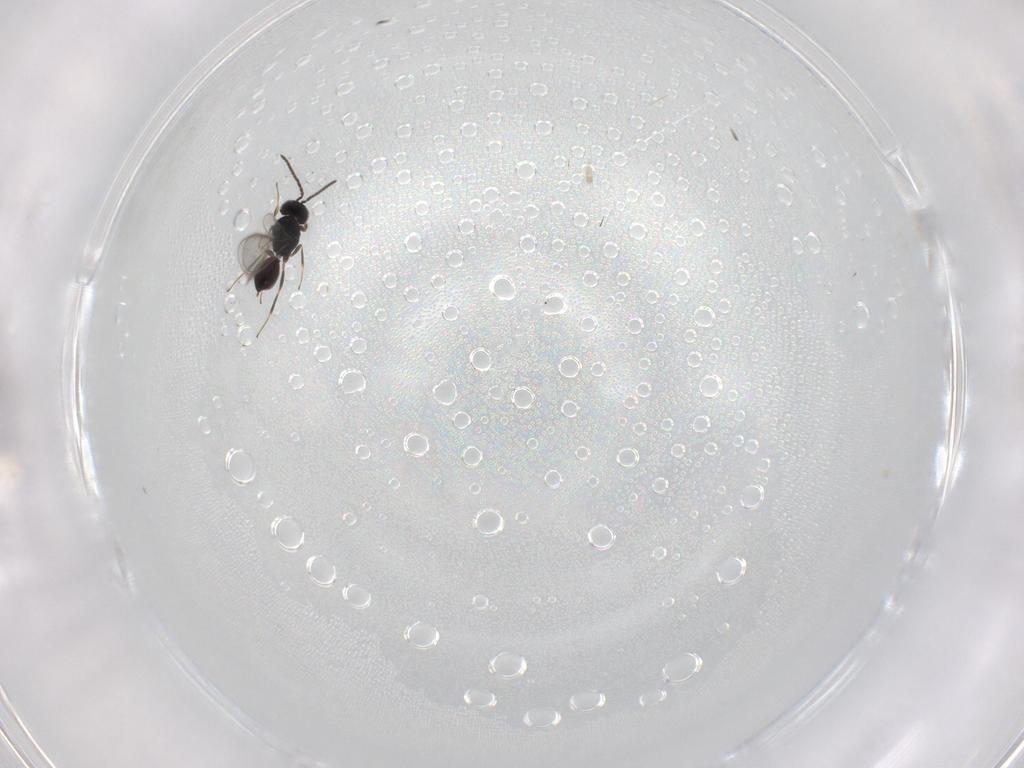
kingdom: Animalia
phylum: Arthropoda
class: Insecta
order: Hymenoptera
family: Scelionidae
